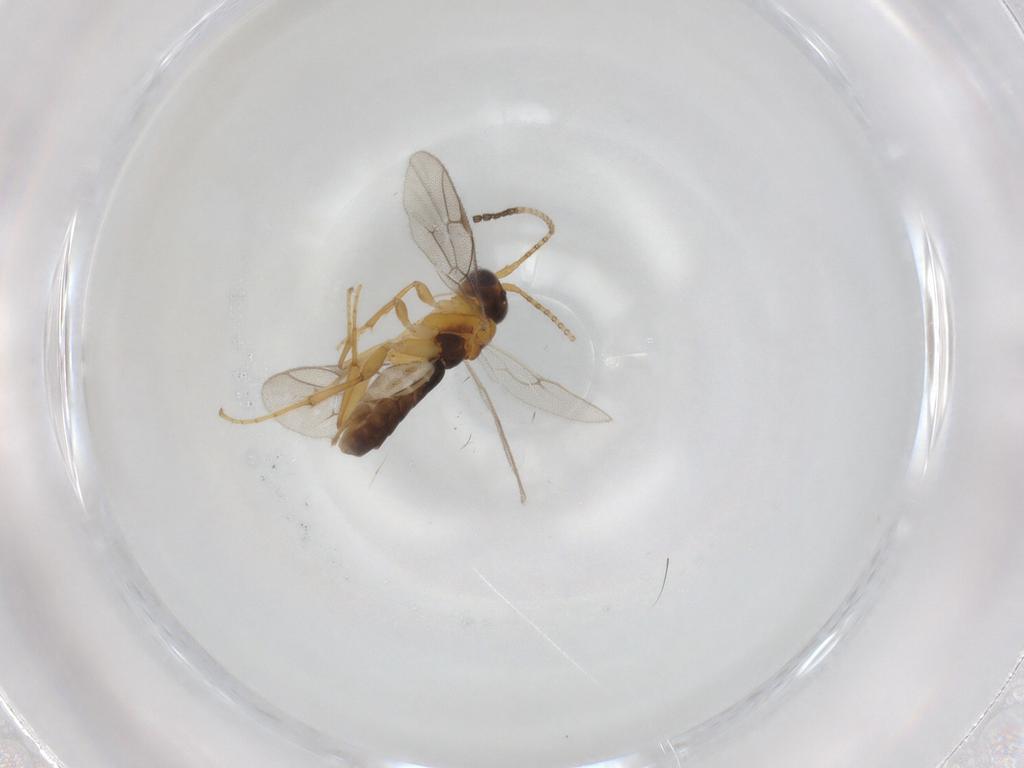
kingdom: Animalia
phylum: Arthropoda
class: Insecta
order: Hymenoptera
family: Ichneumonidae
